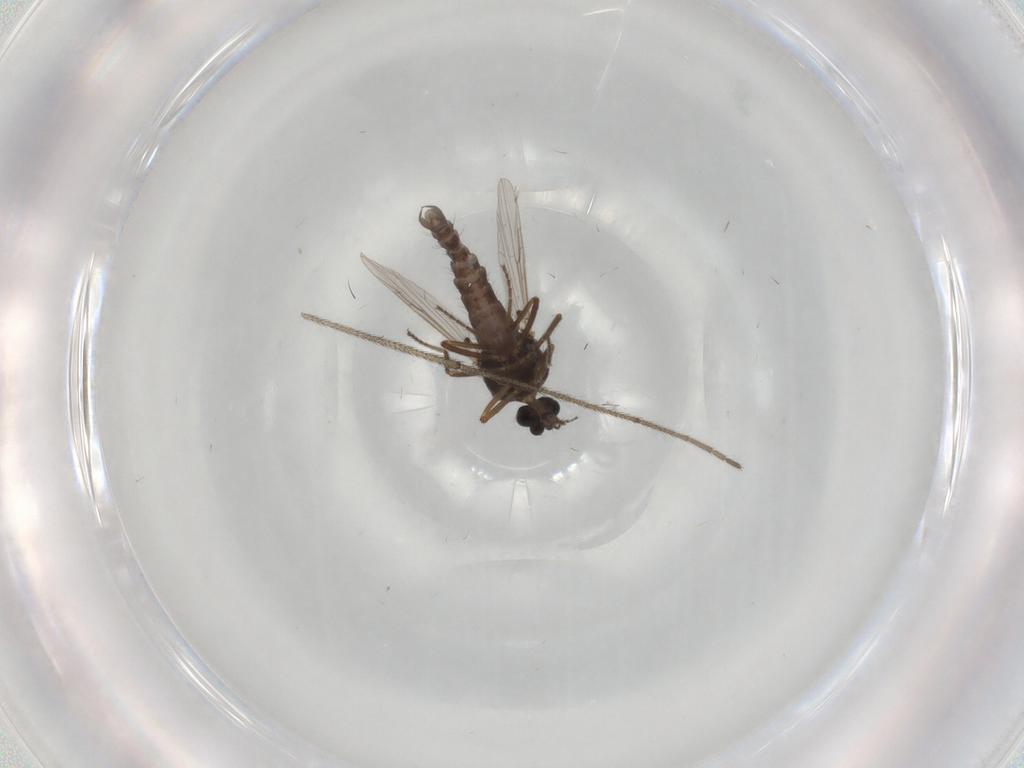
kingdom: Animalia
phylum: Arthropoda
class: Insecta
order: Diptera
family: Ceratopogonidae
